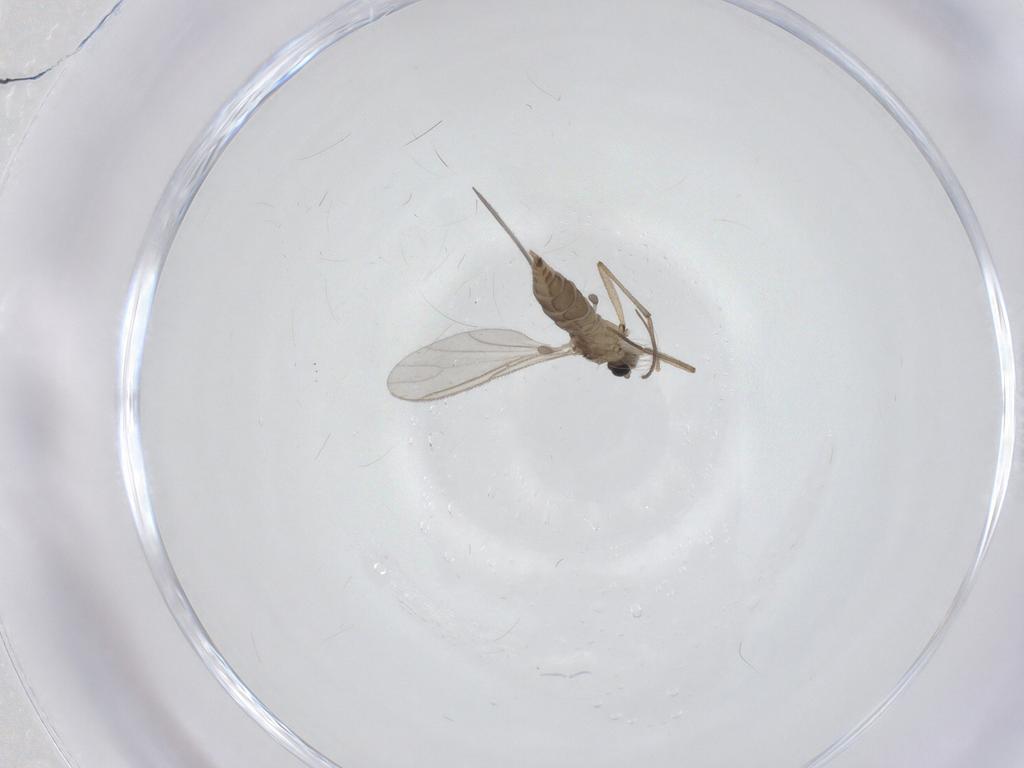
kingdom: Animalia
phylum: Arthropoda
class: Insecta
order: Diptera
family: Sciaridae
